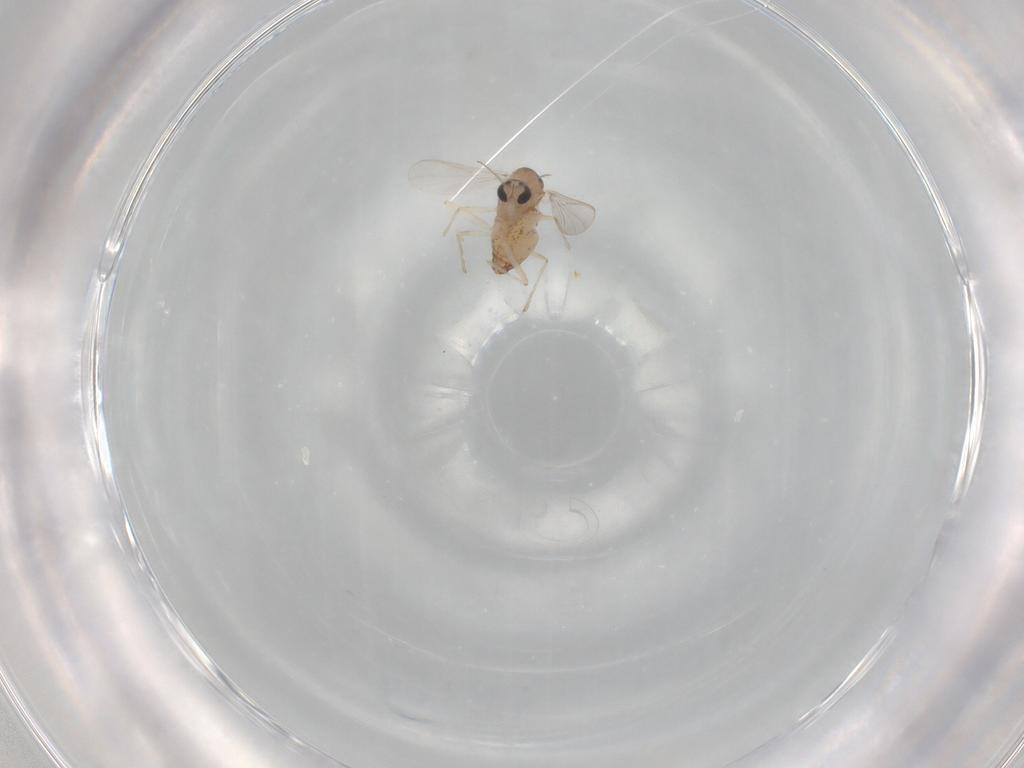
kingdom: Animalia
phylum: Arthropoda
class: Insecta
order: Diptera
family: Chironomidae
